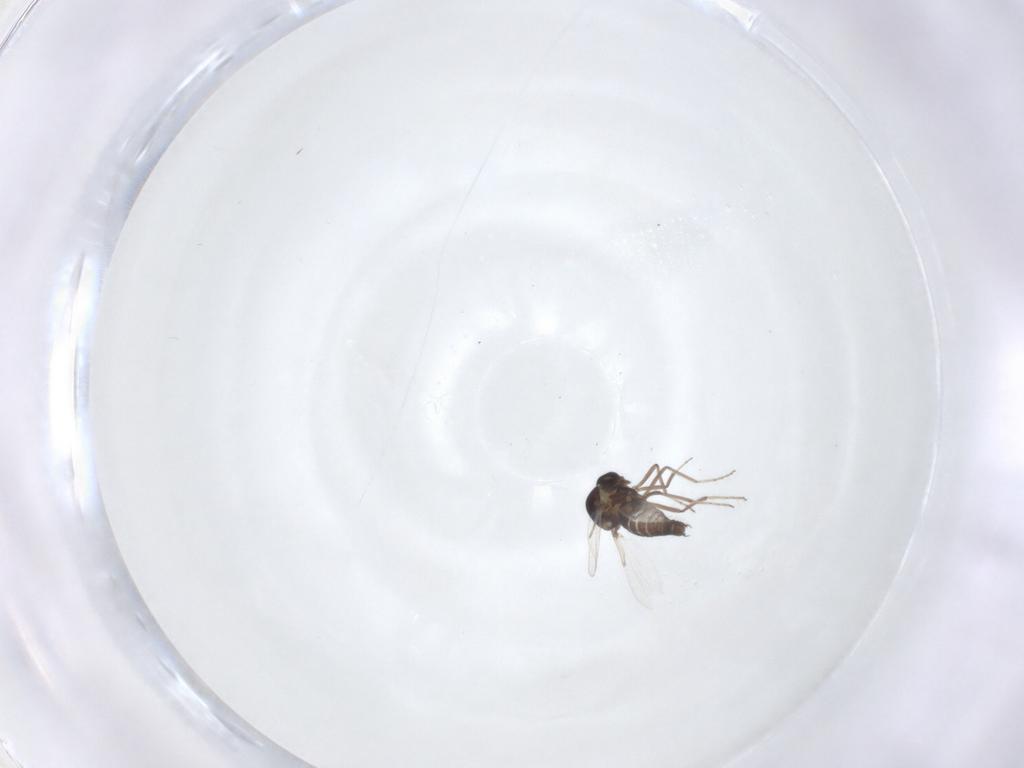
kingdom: Animalia
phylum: Arthropoda
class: Insecta
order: Diptera
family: Ceratopogonidae
